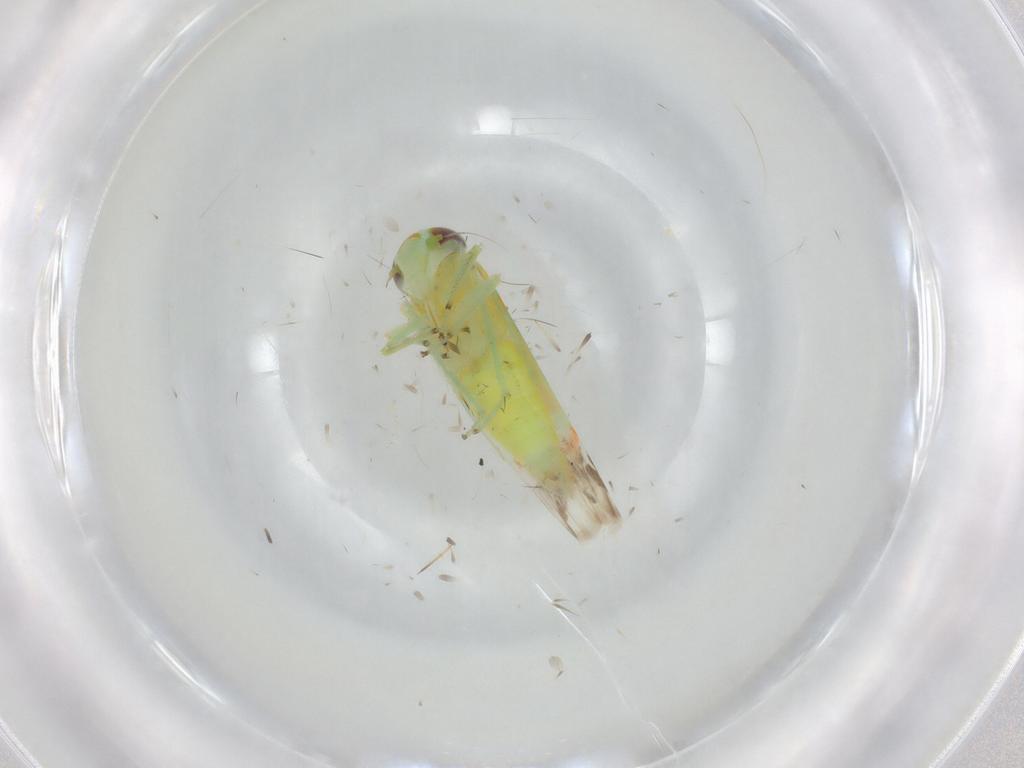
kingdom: Animalia
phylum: Arthropoda
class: Insecta
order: Hemiptera
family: Cicadellidae
